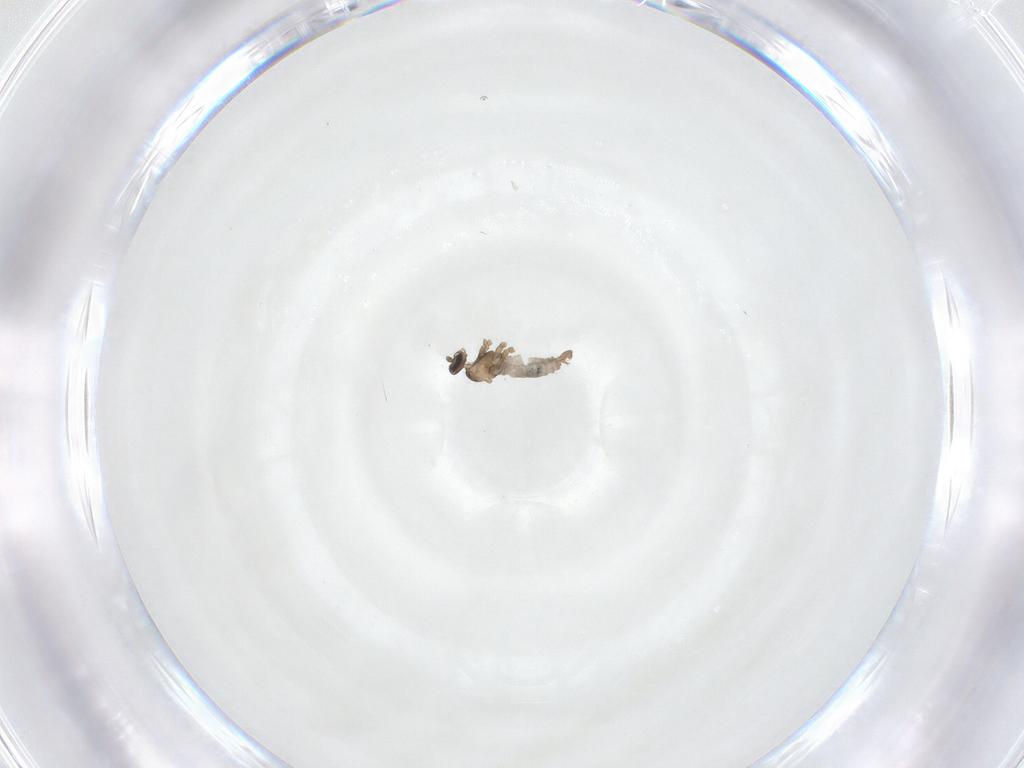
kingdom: Animalia
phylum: Arthropoda
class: Insecta
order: Diptera
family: Cecidomyiidae
